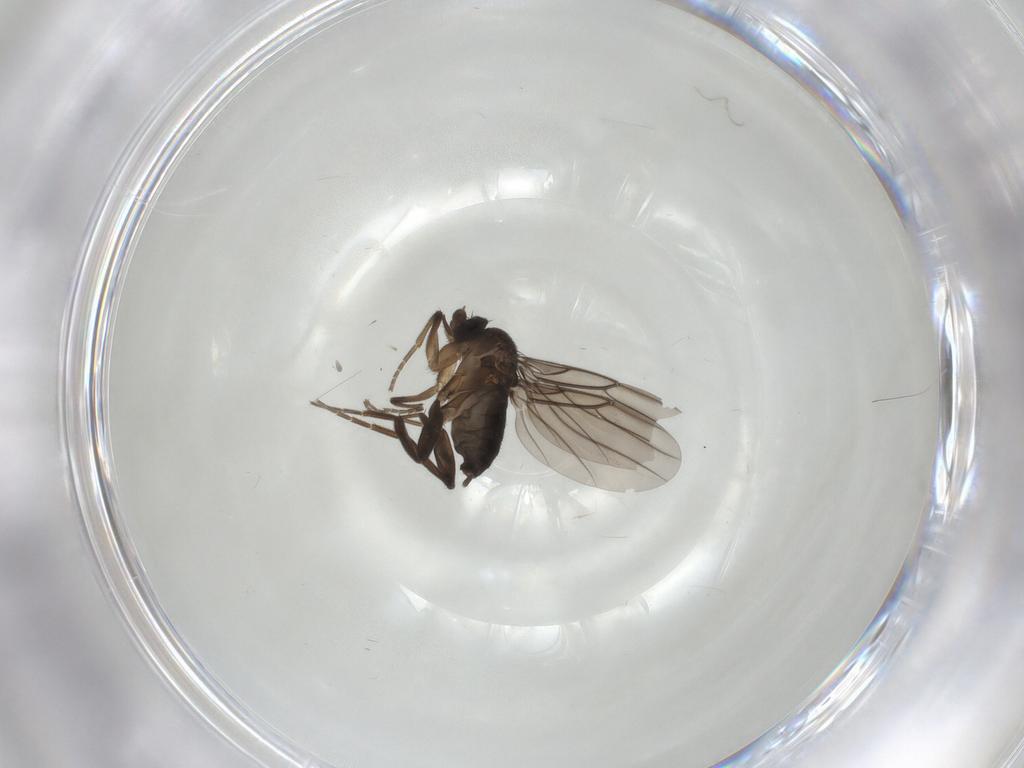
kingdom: Animalia
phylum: Arthropoda
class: Insecta
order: Diptera
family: Phoridae
